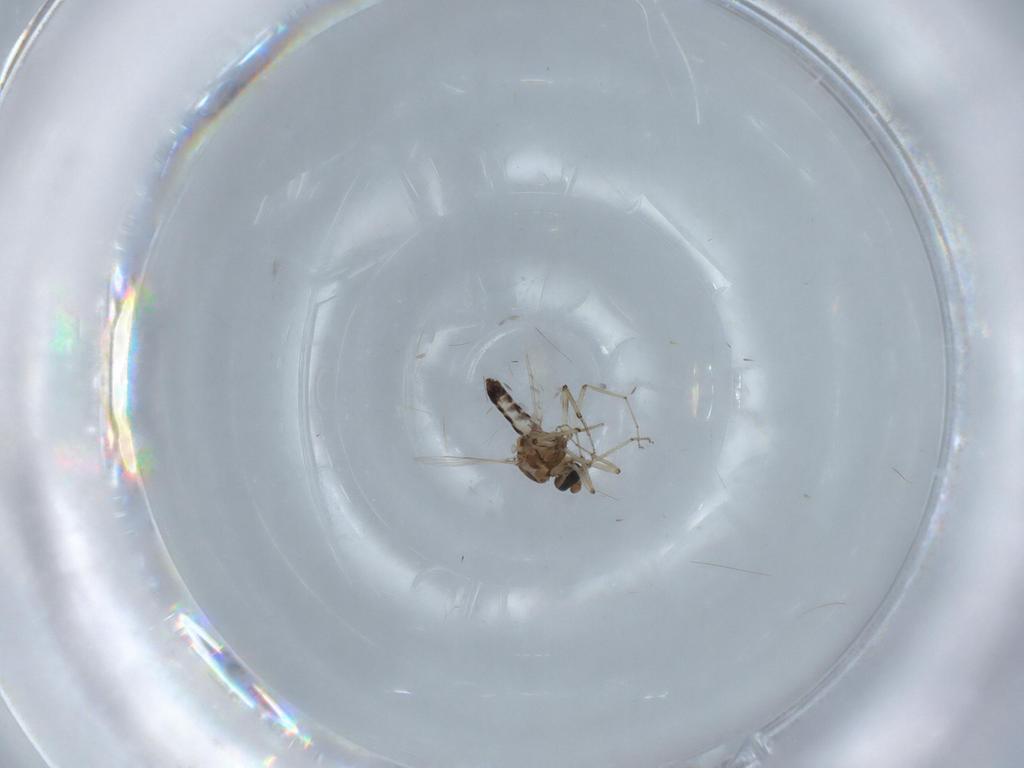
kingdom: Animalia
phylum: Arthropoda
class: Insecta
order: Diptera
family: Ceratopogonidae
